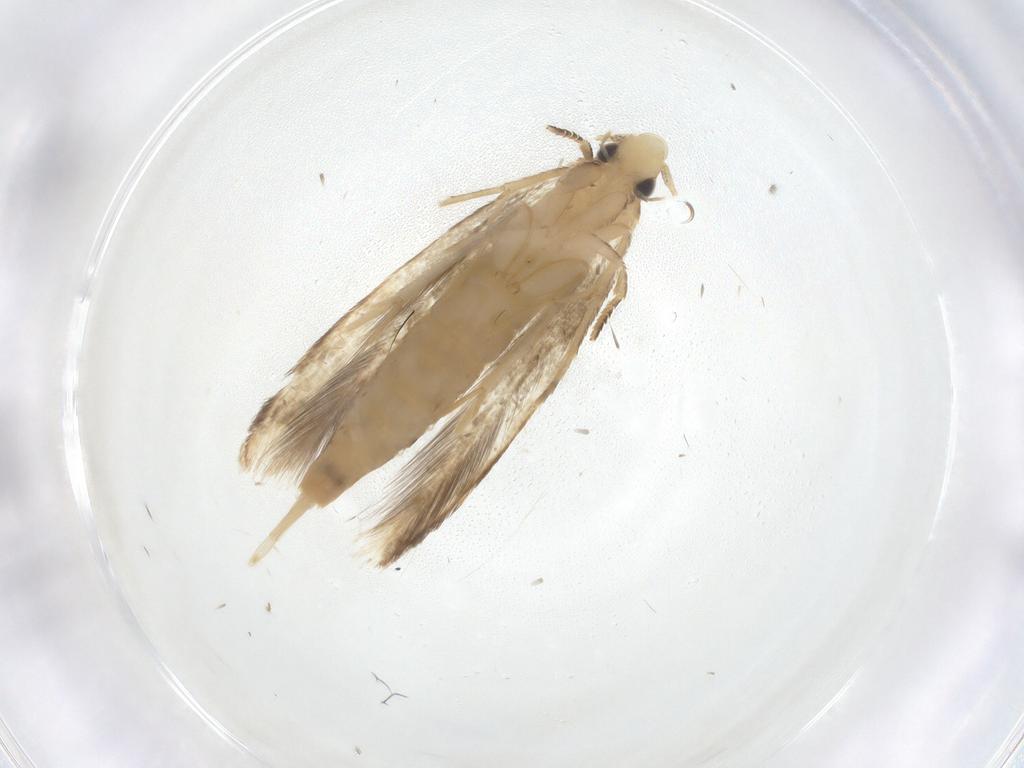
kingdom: Animalia
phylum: Arthropoda
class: Insecta
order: Lepidoptera
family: Tineidae
